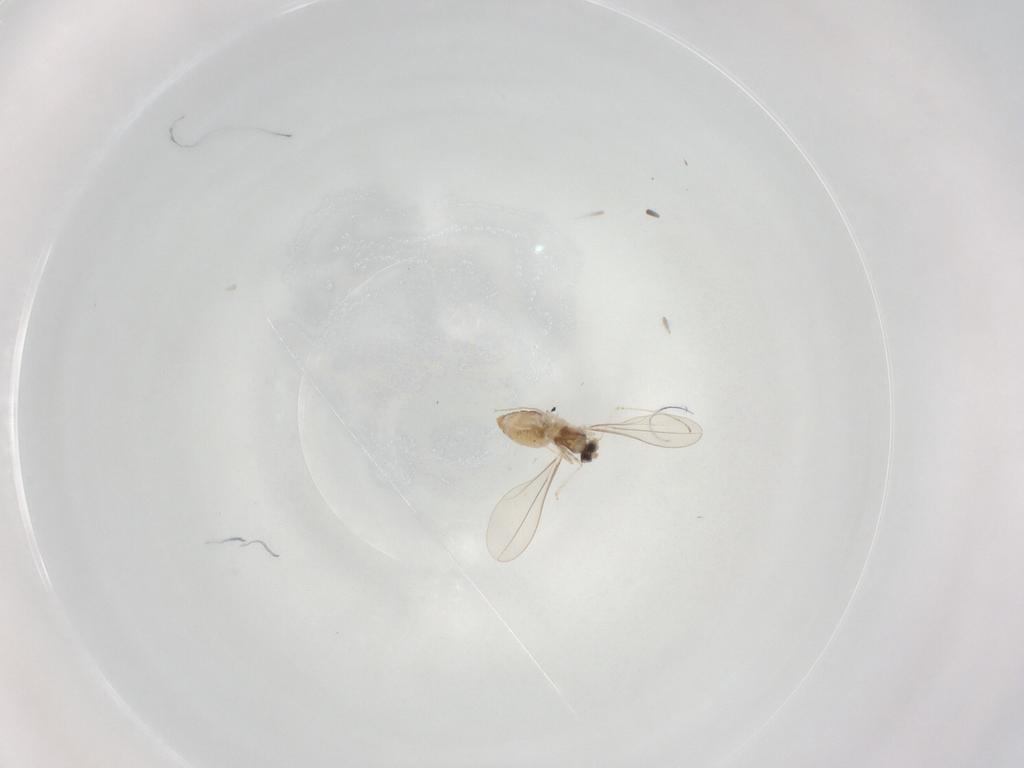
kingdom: Animalia
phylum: Arthropoda
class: Insecta
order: Diptera
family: Cecidomyiidae
